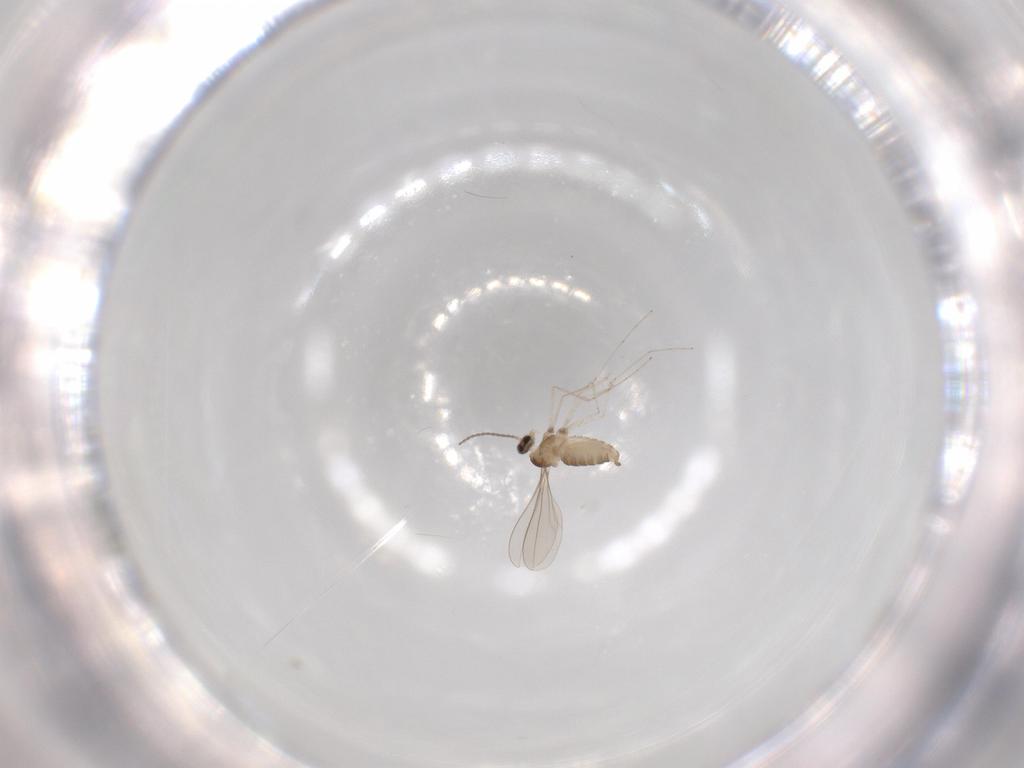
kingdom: Animalia
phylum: Arthropoda
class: Insecta
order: Diptera
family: Cecidomyiidae
